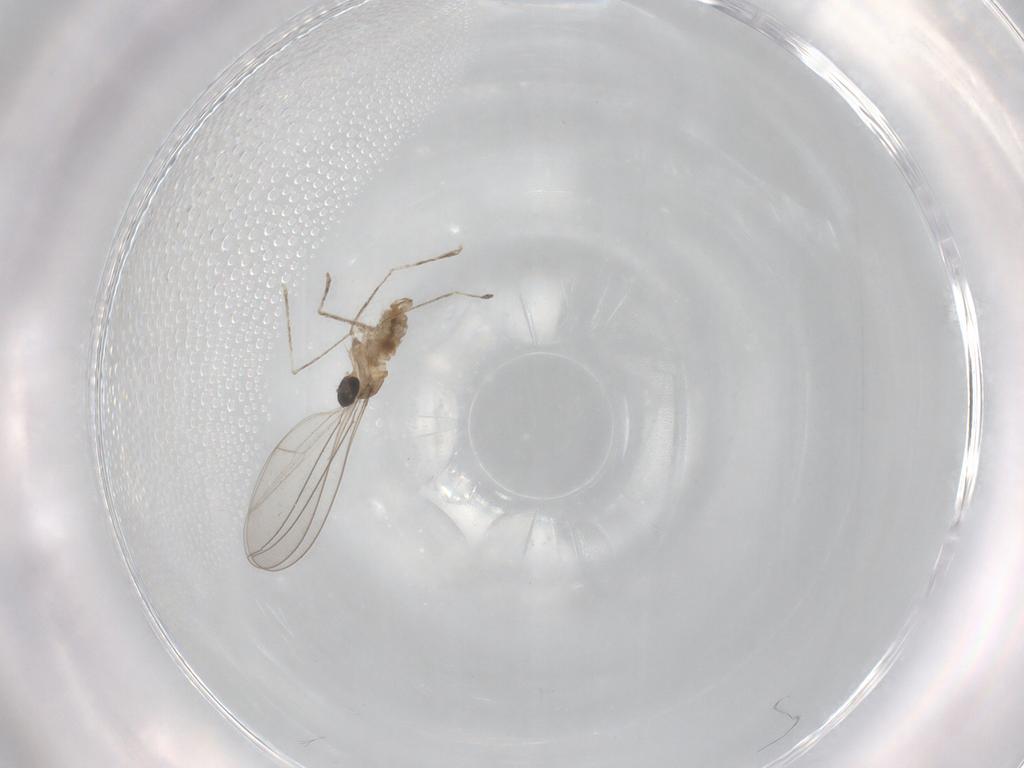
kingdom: Animalia
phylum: Arthropoda
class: Insecta
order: Diptera
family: Cecidomyiidae
